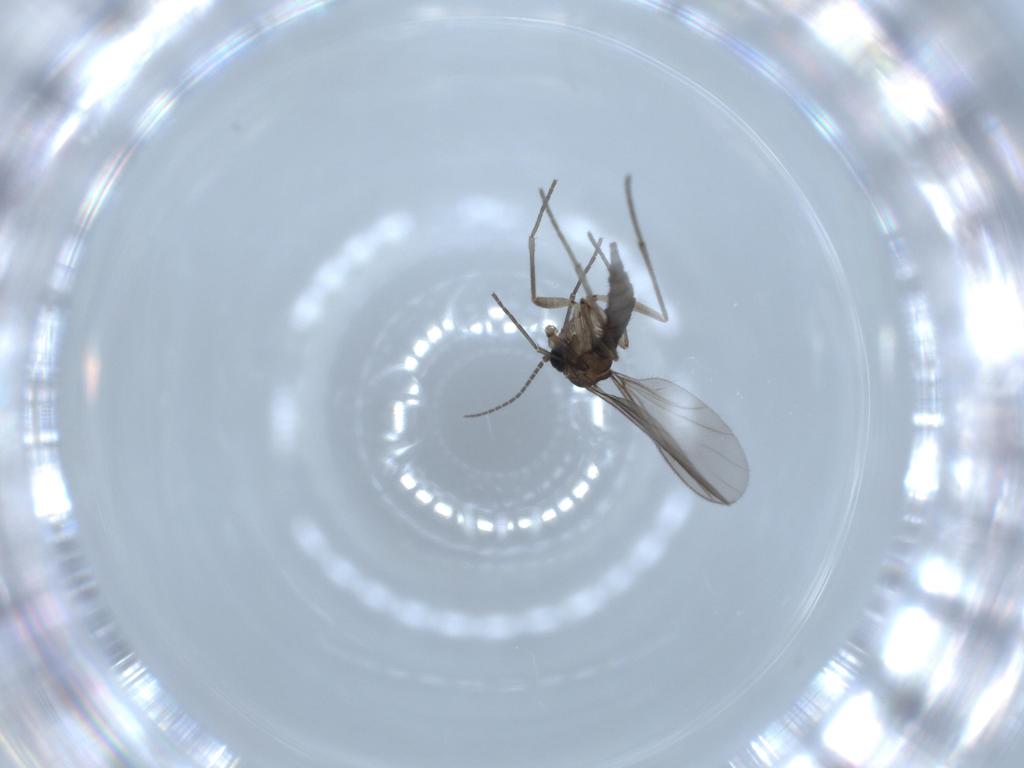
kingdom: Animalia
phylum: Arthropoda
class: Insecta
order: Diptera
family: Sciaridae
